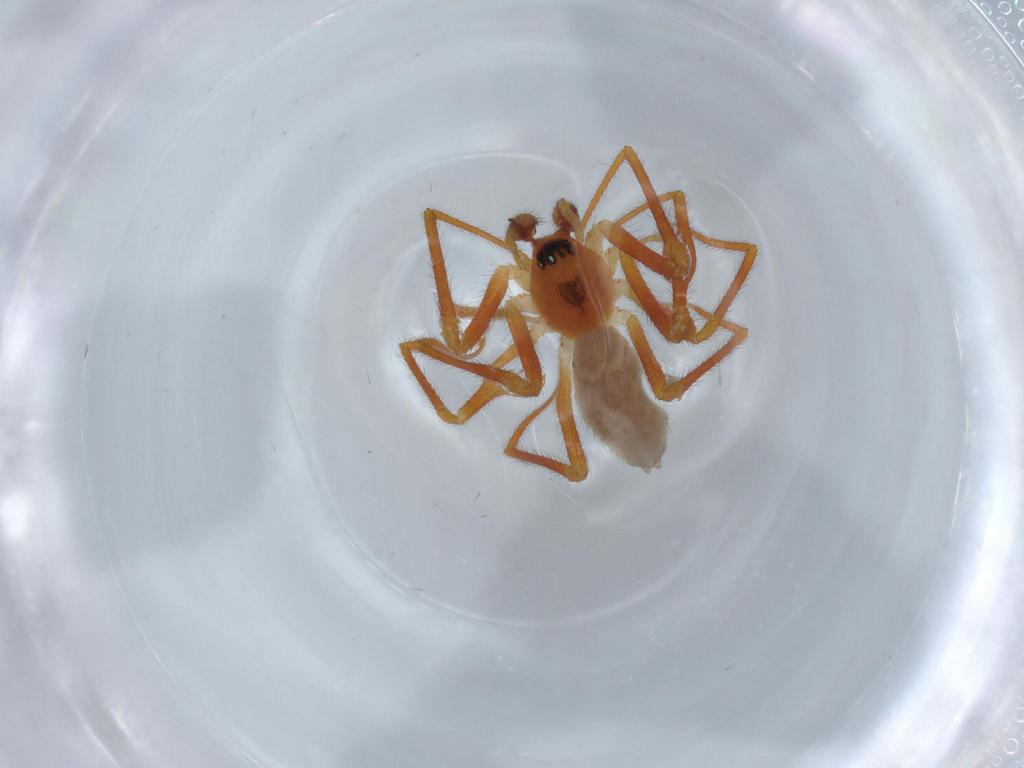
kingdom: Animalia
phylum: Arthropoda
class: Arachnida
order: Araneae
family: Linyphiidae
